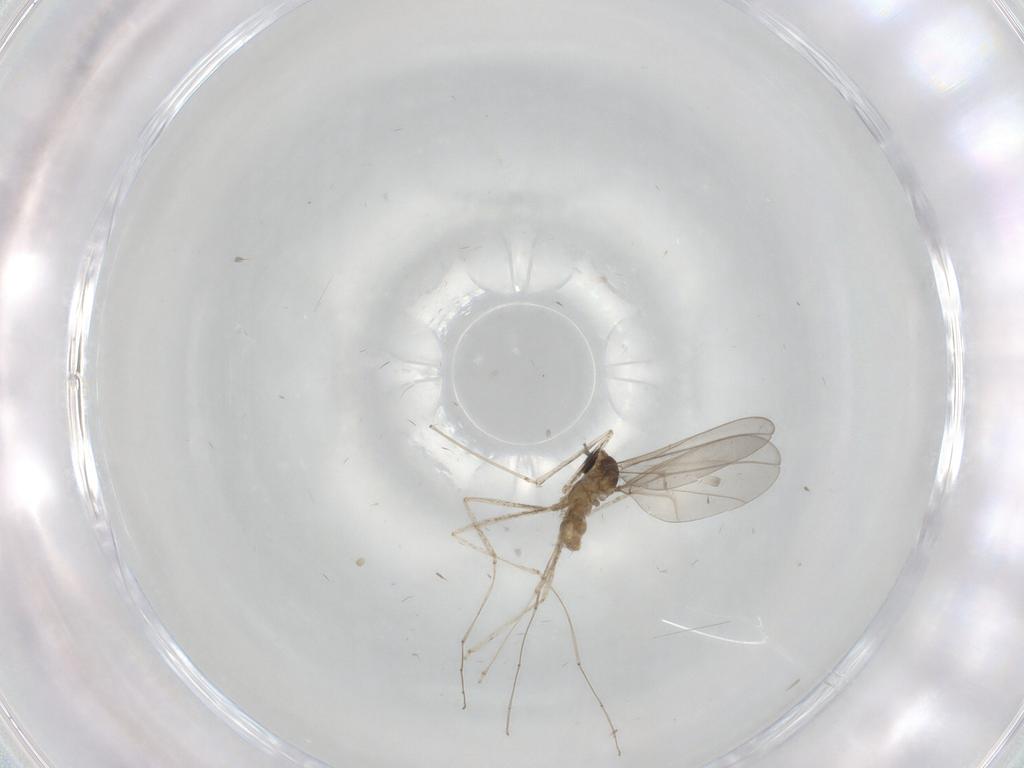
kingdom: Animalia
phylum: Arthropoda
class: Insecta
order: Diptera
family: Cecidomyiidae
